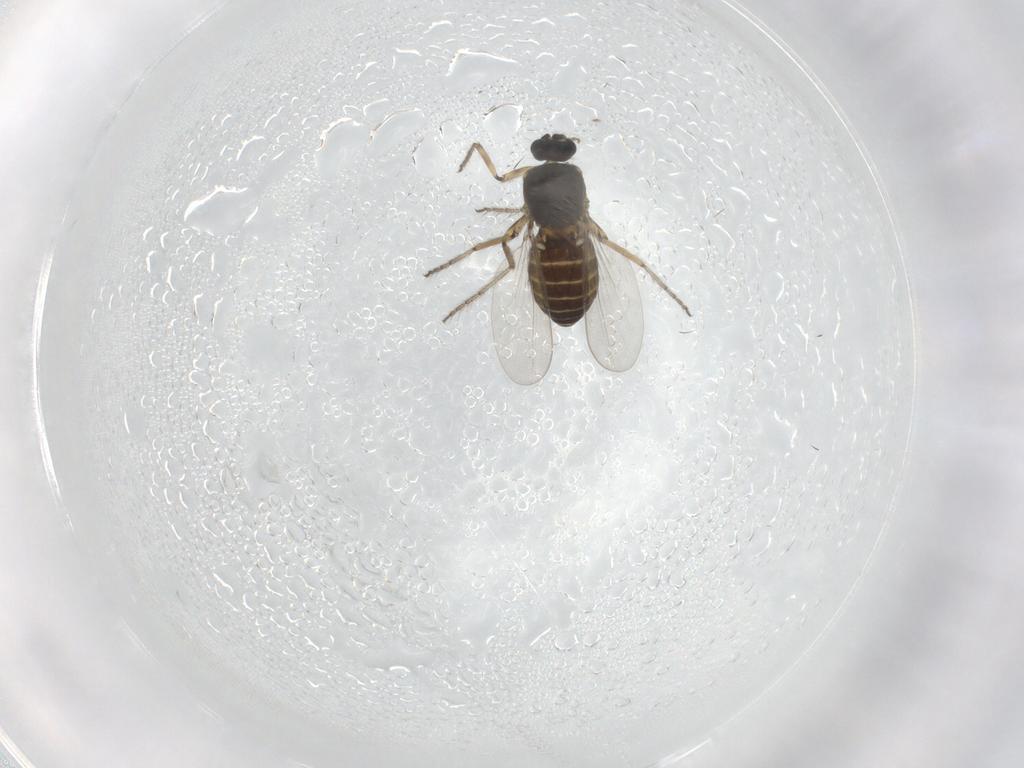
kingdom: Animalia
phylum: Arthropoda
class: Insecta
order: Diptera
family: Ceratopogonidae
